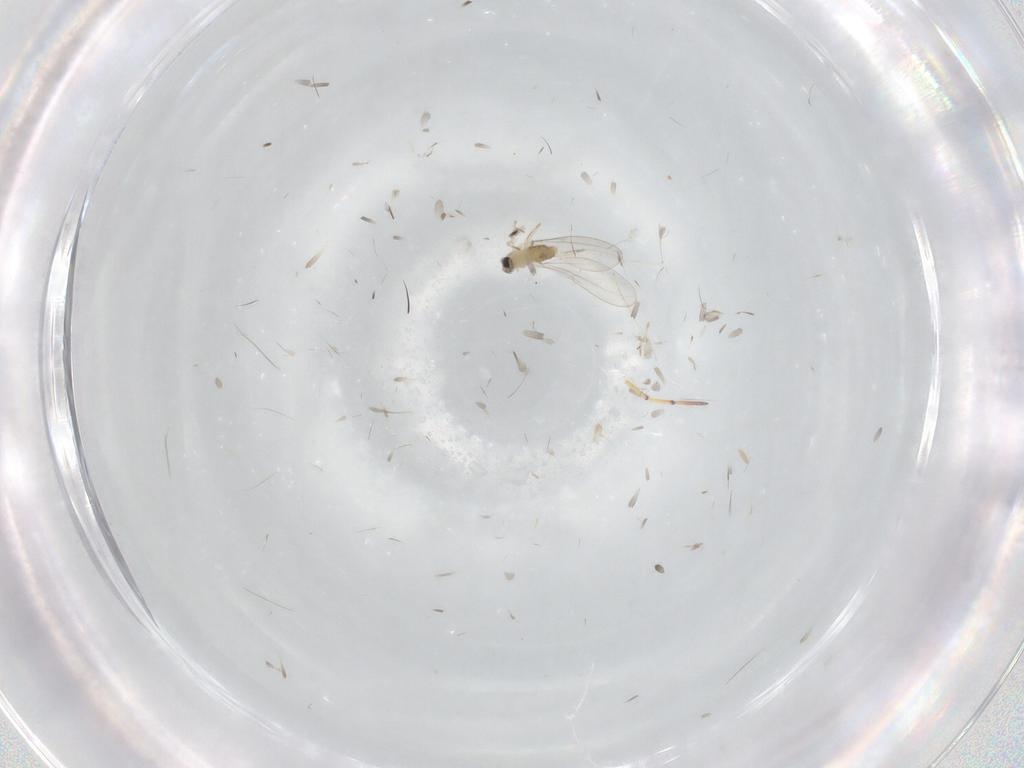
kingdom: Animalia
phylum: Arthropoda
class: Insecta
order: Diptera
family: Cecidomyiidae
